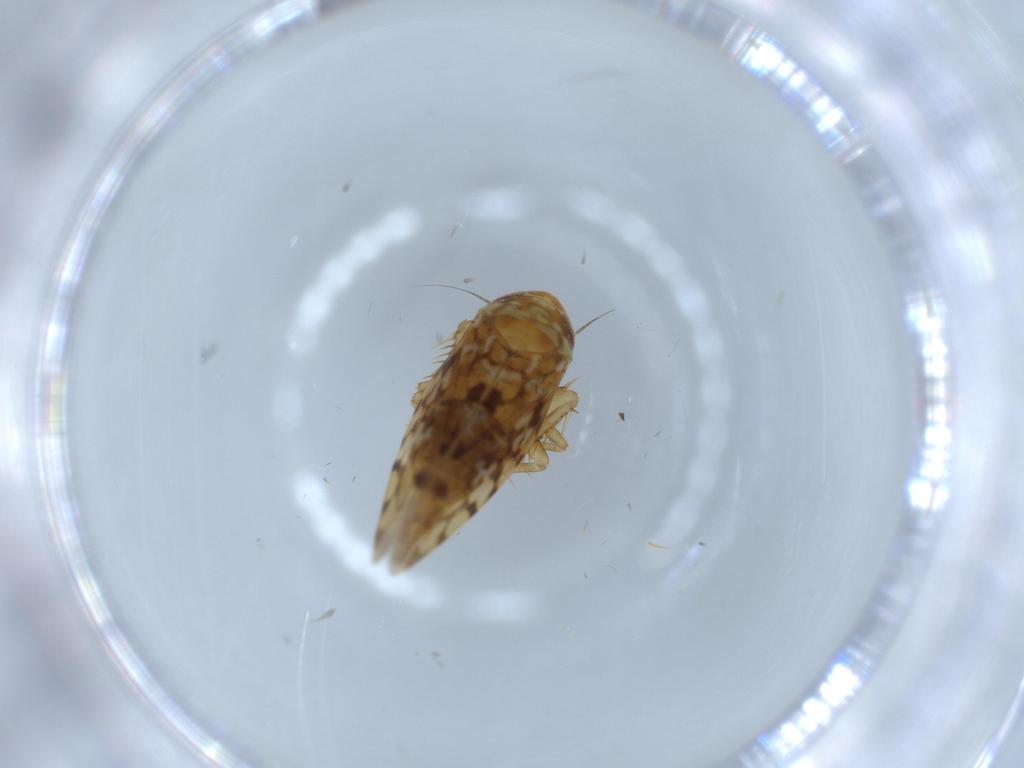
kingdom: Animalia
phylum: Arthropoda
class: Insecta
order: Hemiptera
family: Cicadellidae
